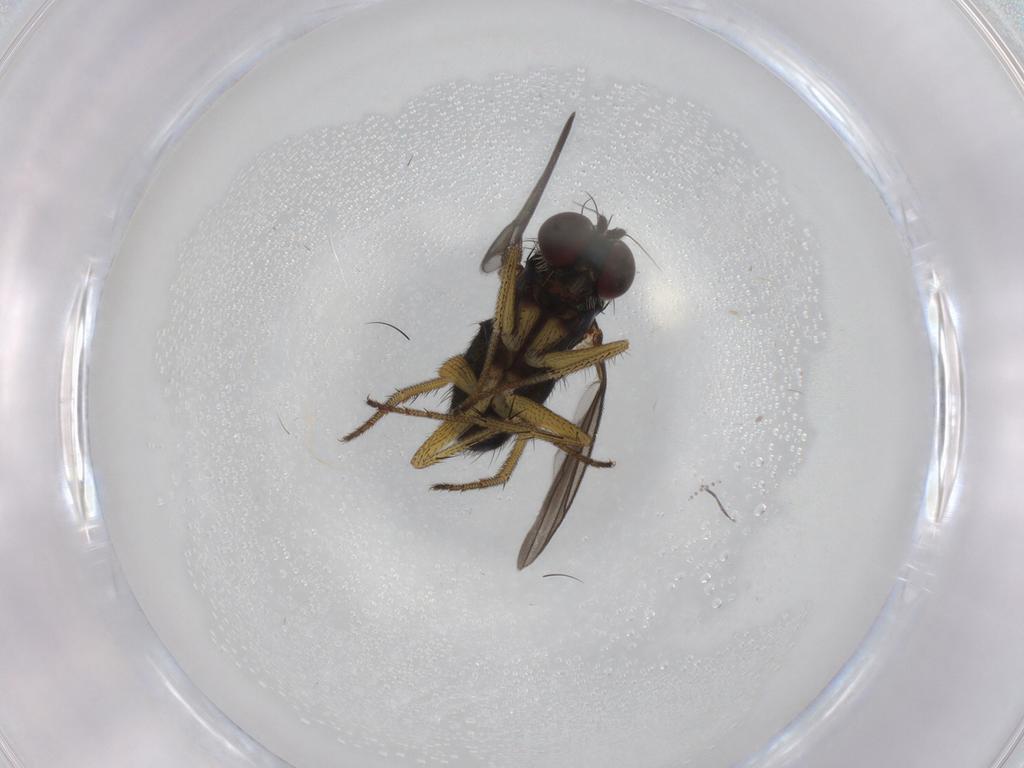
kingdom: Animalia
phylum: Arthropoda
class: Insecta
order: Diptera
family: Dolichopodidae
